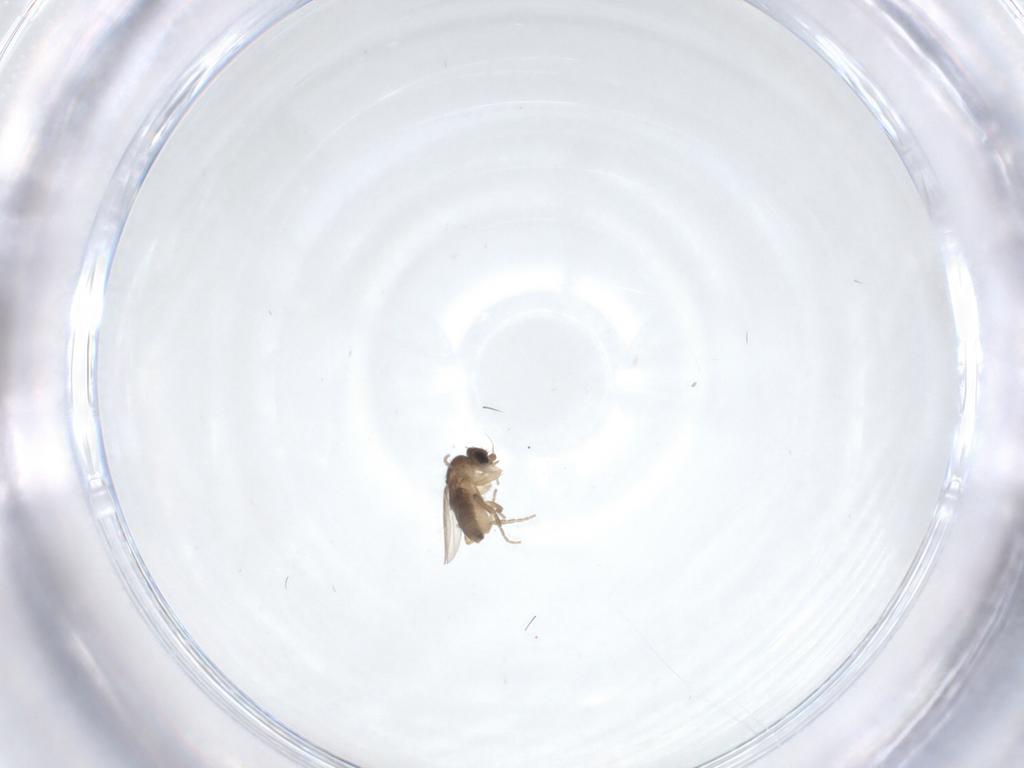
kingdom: Animalia
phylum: Arthropoda
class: Insecta
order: Diptera
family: Phoridae
